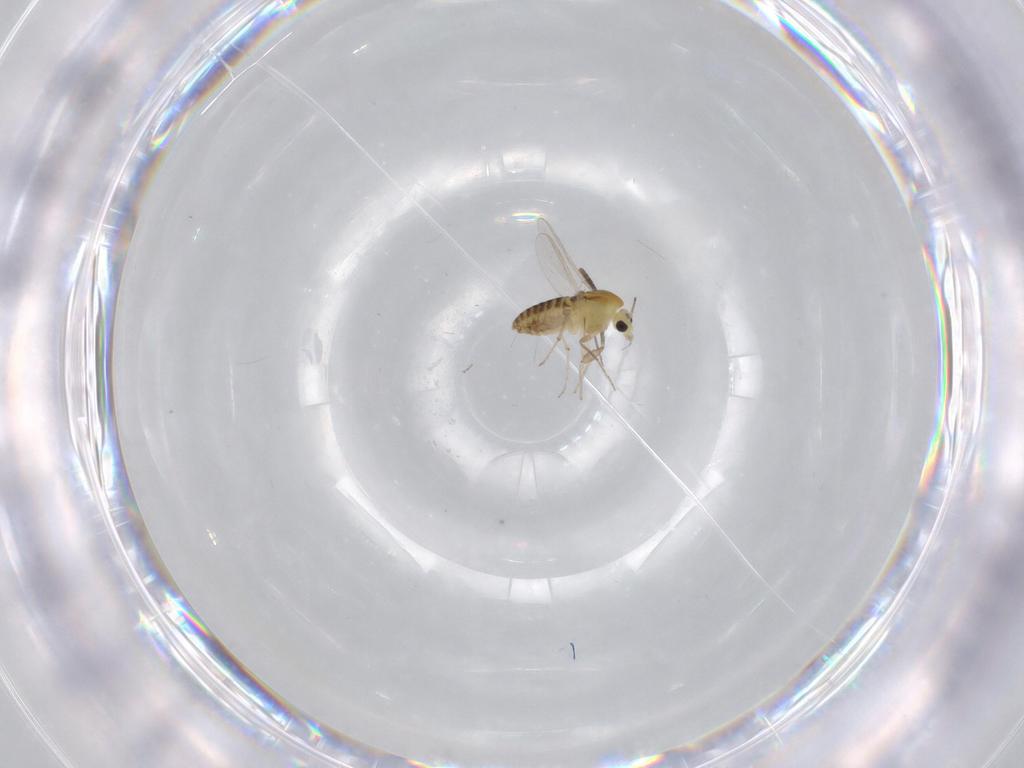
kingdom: Animalia
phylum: Arthropoda
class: Insecta
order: Diptera
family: Chironomidae
